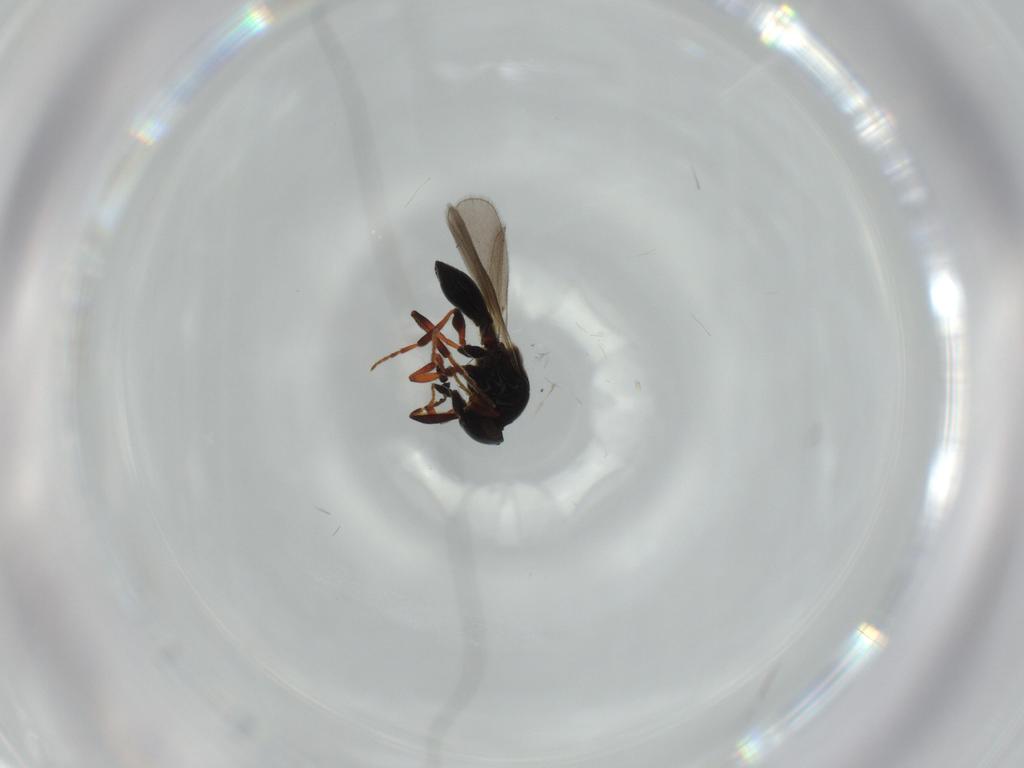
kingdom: Animalia
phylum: Arthropoda
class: Insecta
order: Hymenoptera
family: Platygastridae
